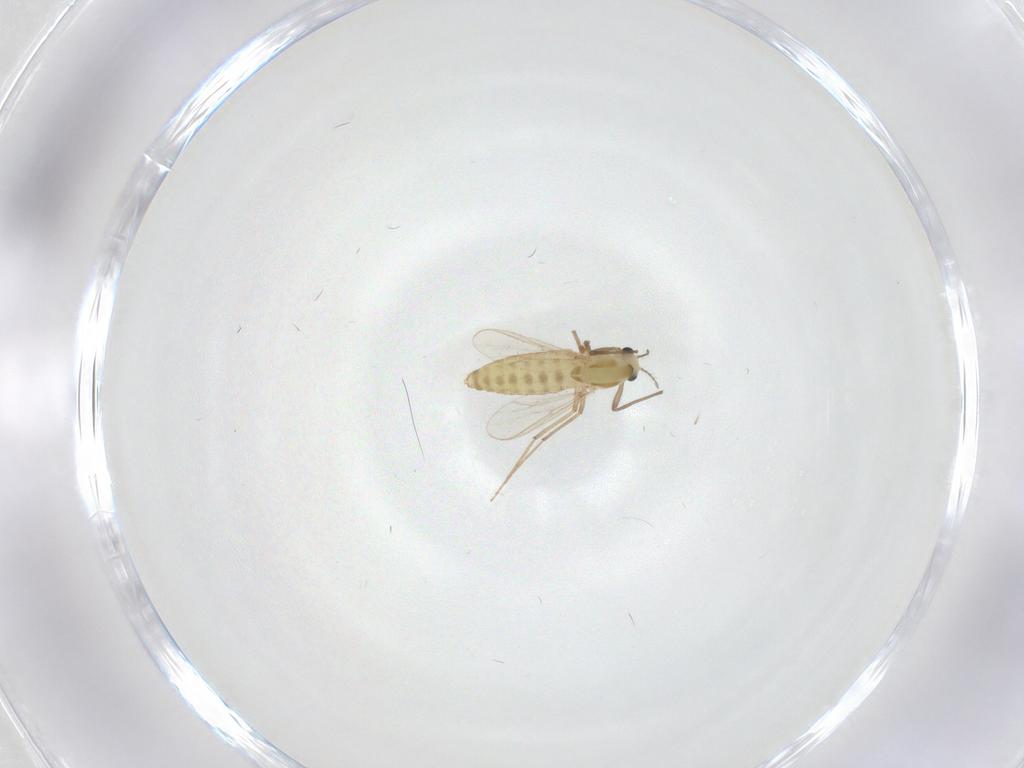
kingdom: Animalia
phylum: Arthropoda
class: Insecta
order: Diptera
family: Chironomidae
